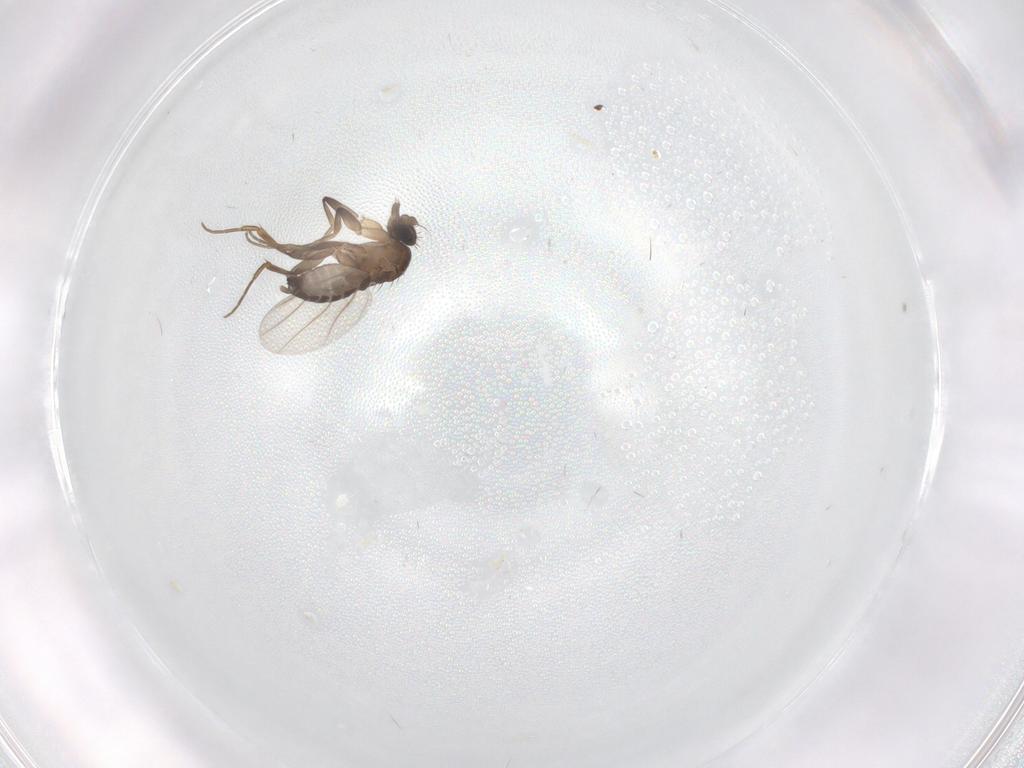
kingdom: Animalia
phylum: Arthropoda
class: Insecta
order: Diptera
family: Phoridae
